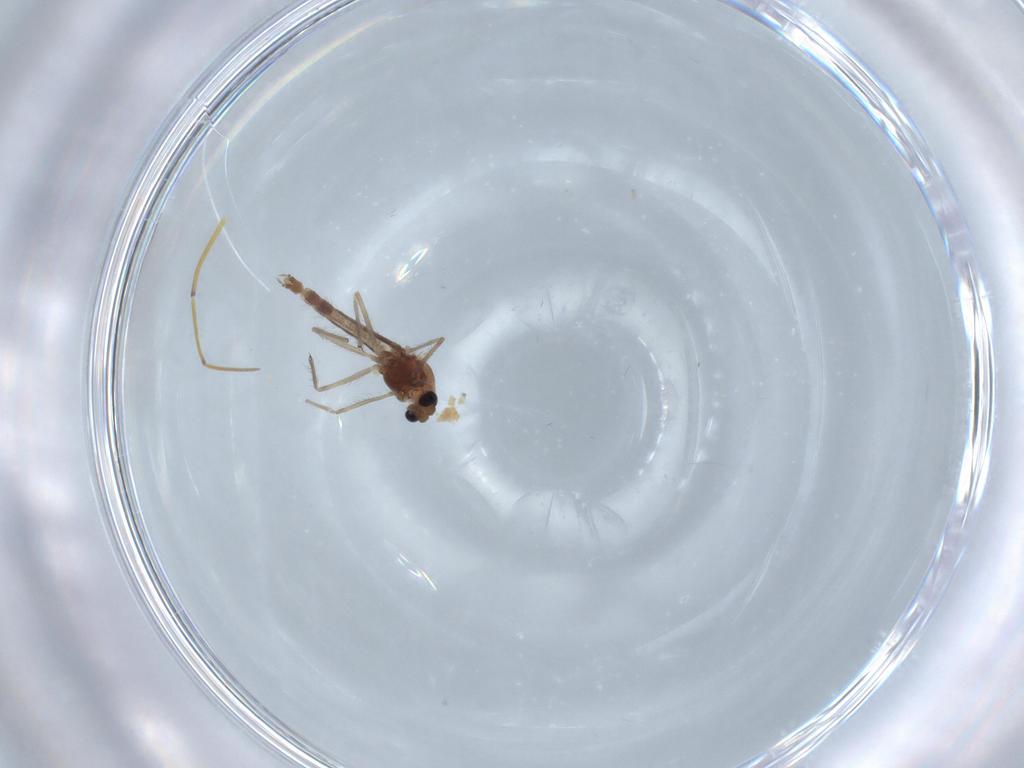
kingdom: Animalia
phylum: Arthropoda
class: Insecta
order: Diptera
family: Chironomidae
